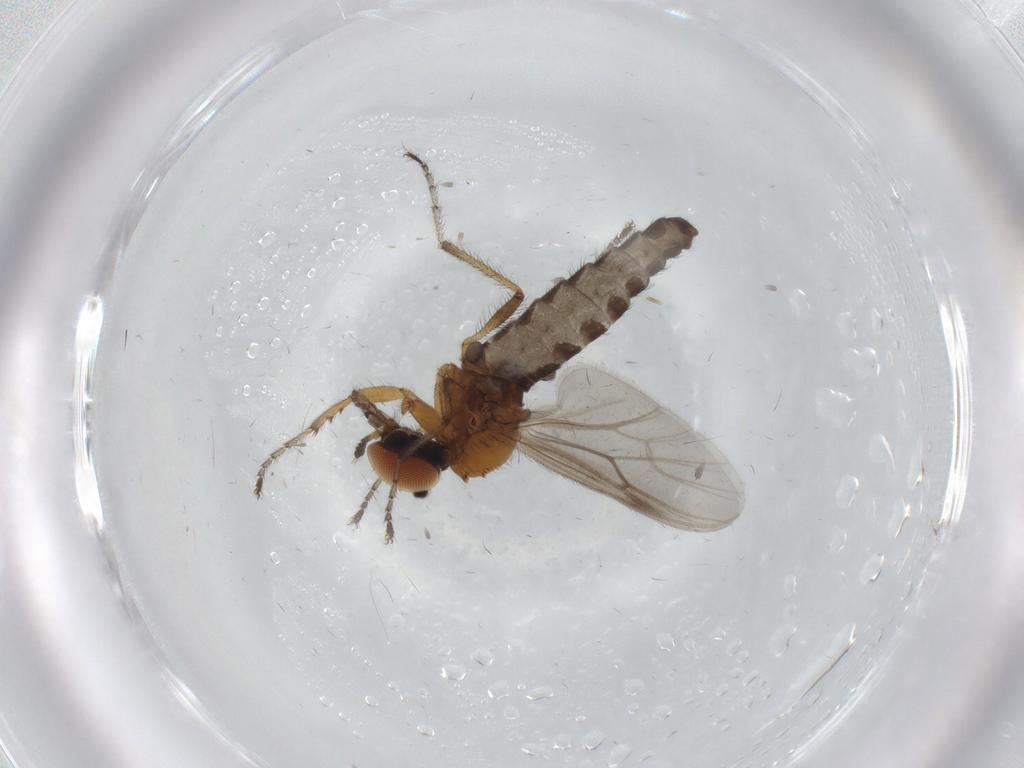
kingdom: Animalia
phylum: Arthropoda
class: Insecta
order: Diptera
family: Bibionidae
